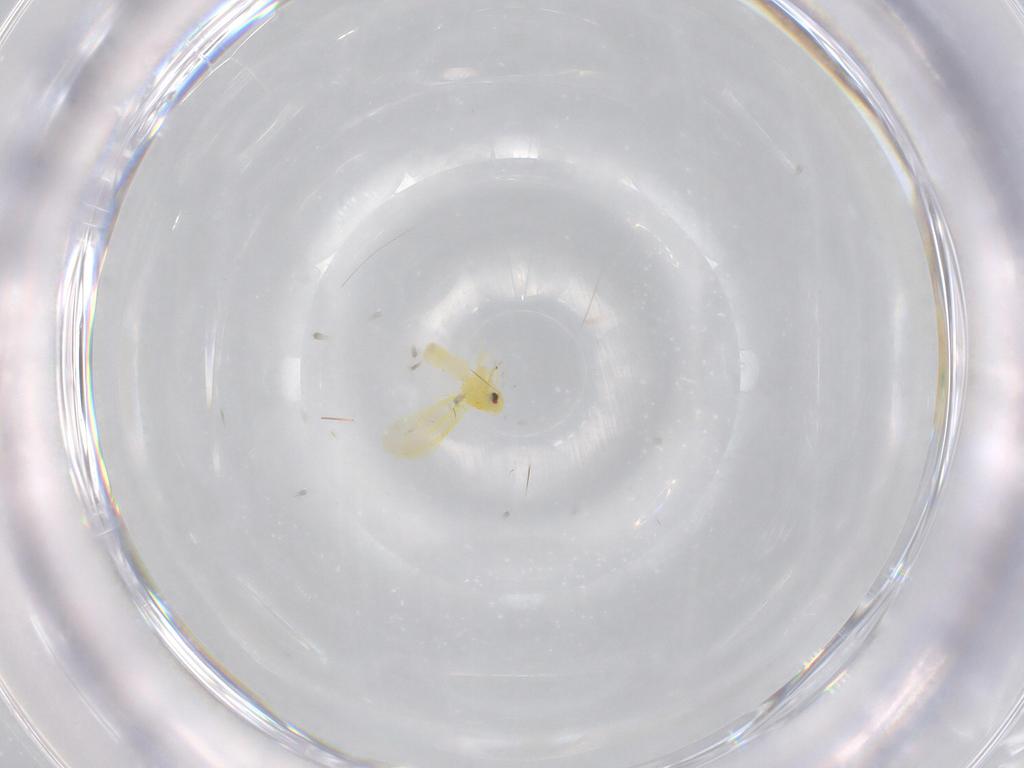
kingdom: Animalia
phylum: Arthropoda
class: Insecta
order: Hemiptera
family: Aleyrodidae
